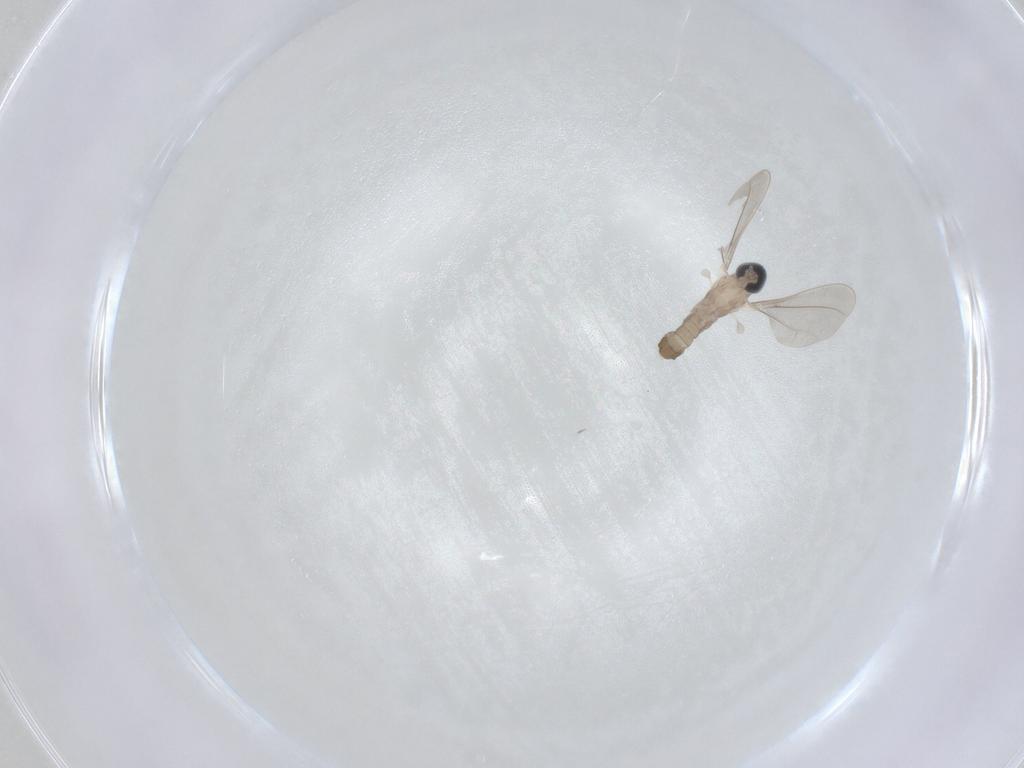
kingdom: Animalia
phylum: Arthropoda
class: Insecta
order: Diptera
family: Cecidomyiidae
